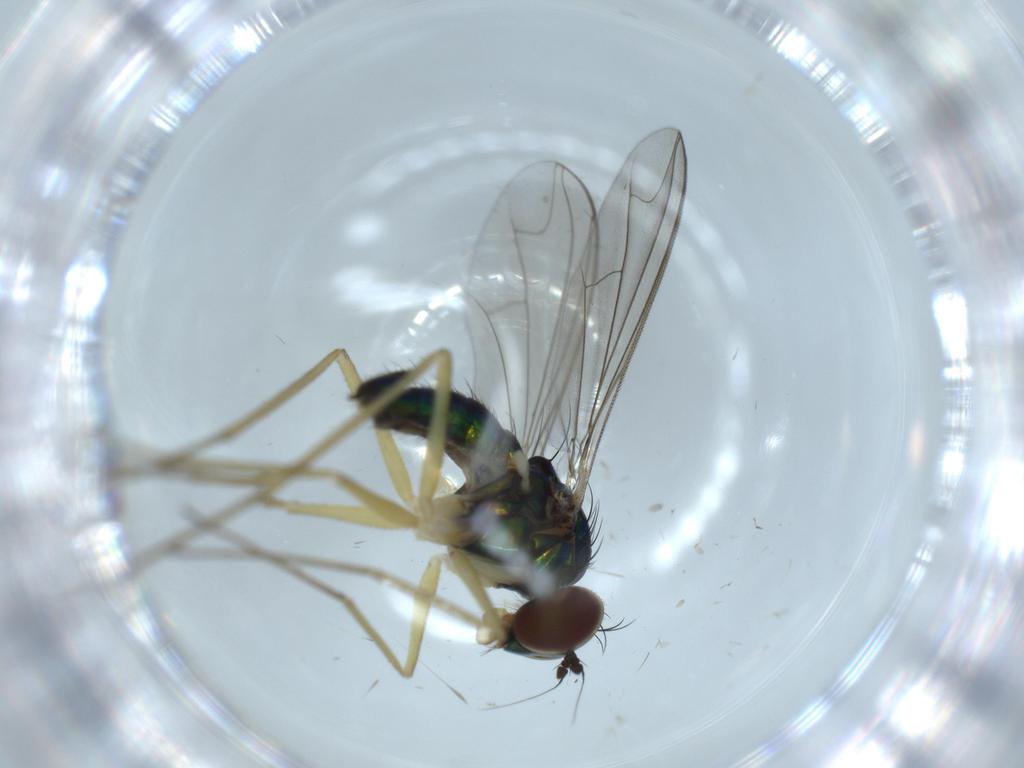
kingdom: Animalia
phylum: Arthropoda
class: Insecta
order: Diptera
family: Dolichopodidae
